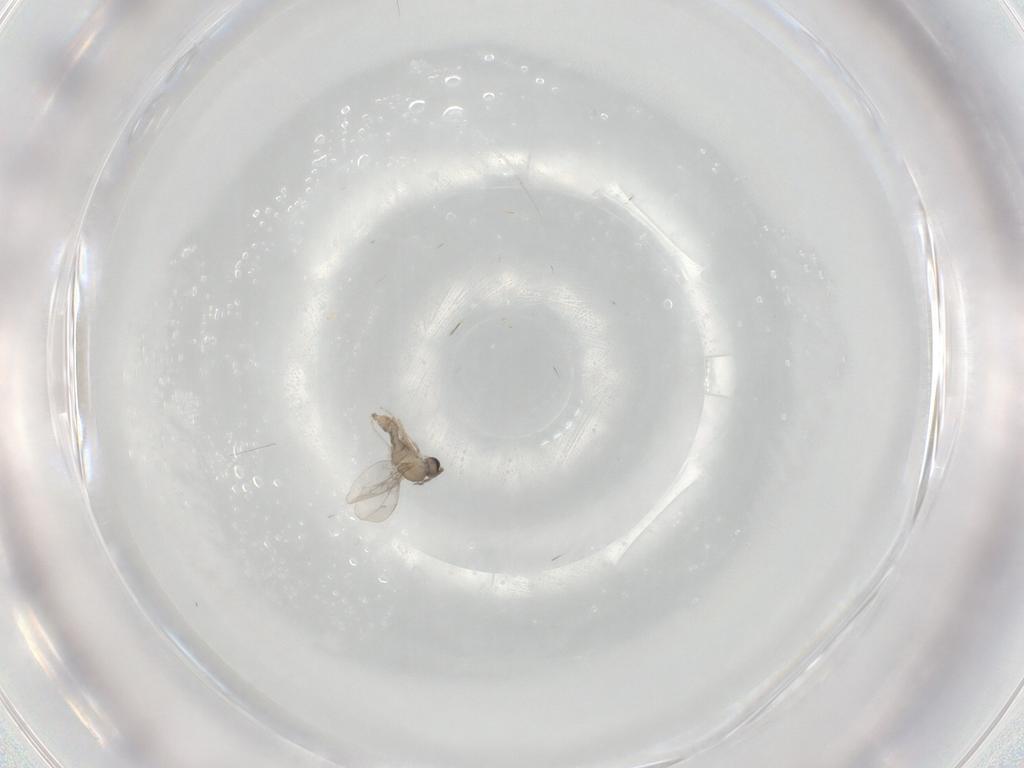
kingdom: Animalia
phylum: Arthropoda
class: Insecta
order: Diptera
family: Cecidomyiidae
